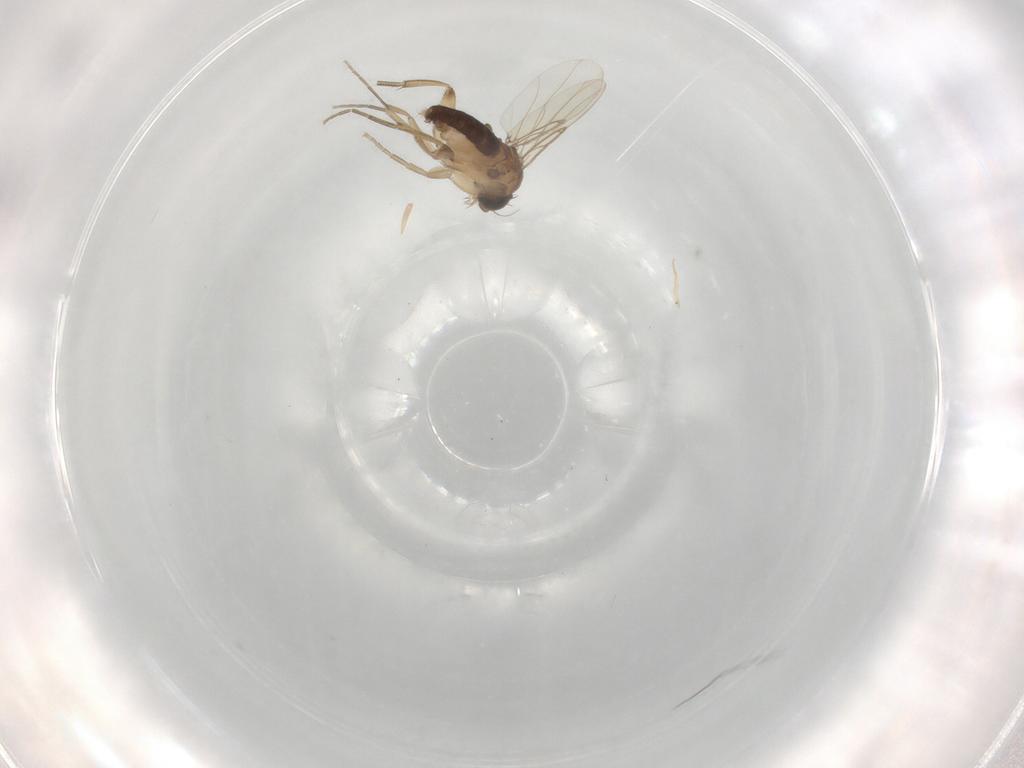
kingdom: Animalia
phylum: Arthropoda
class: Insecta
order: Diptera
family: Phoridae
